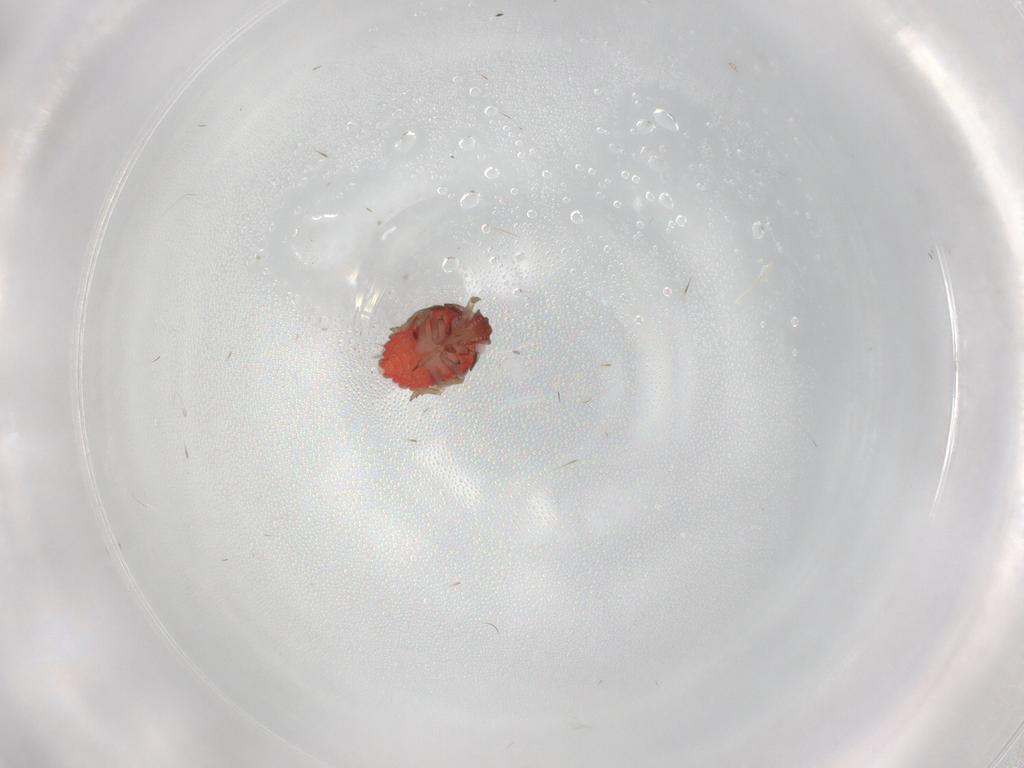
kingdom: Animalia
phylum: Arthropoda
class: Insecta
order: Hemiptera
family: Derbidae
